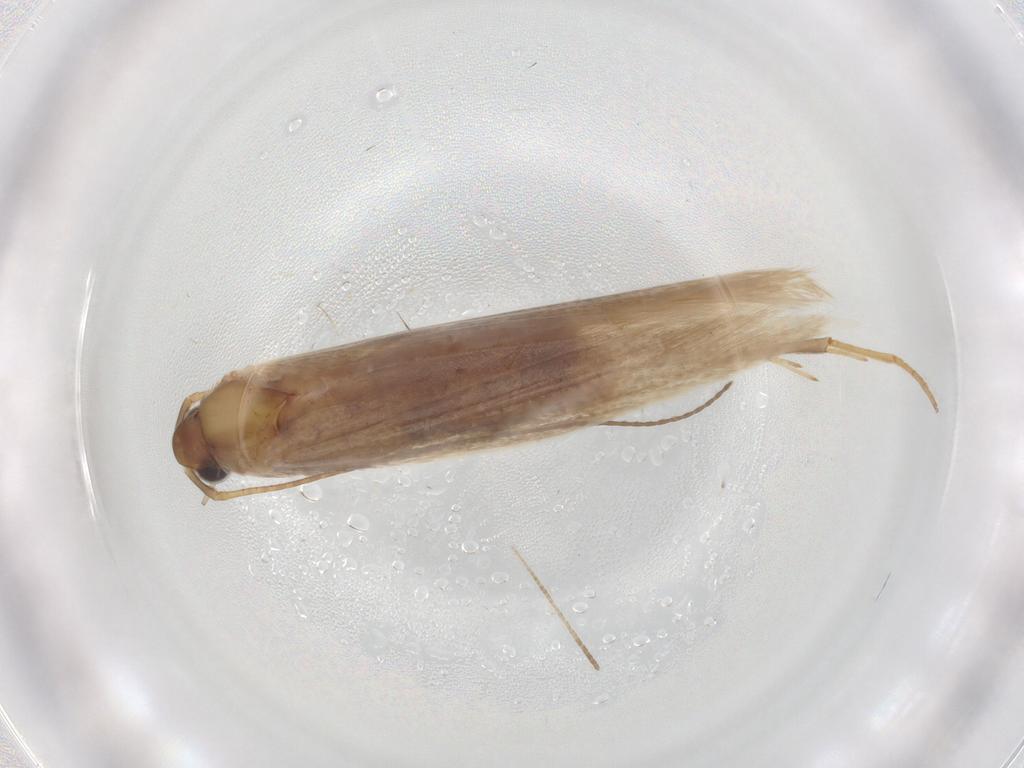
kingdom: Animalia
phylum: Arthropoda
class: Insecta
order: Lepidoptera
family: Coleophoridae
